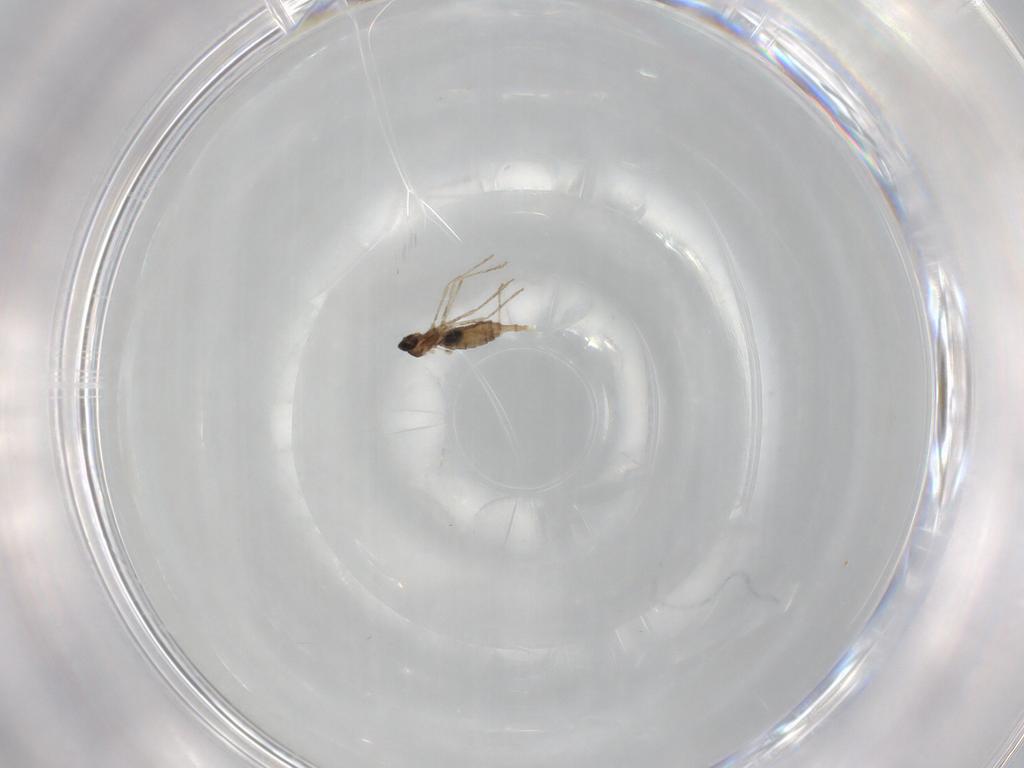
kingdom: Animalia
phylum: Arthropoda
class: Insecta
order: Diptera
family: Sciaridae
